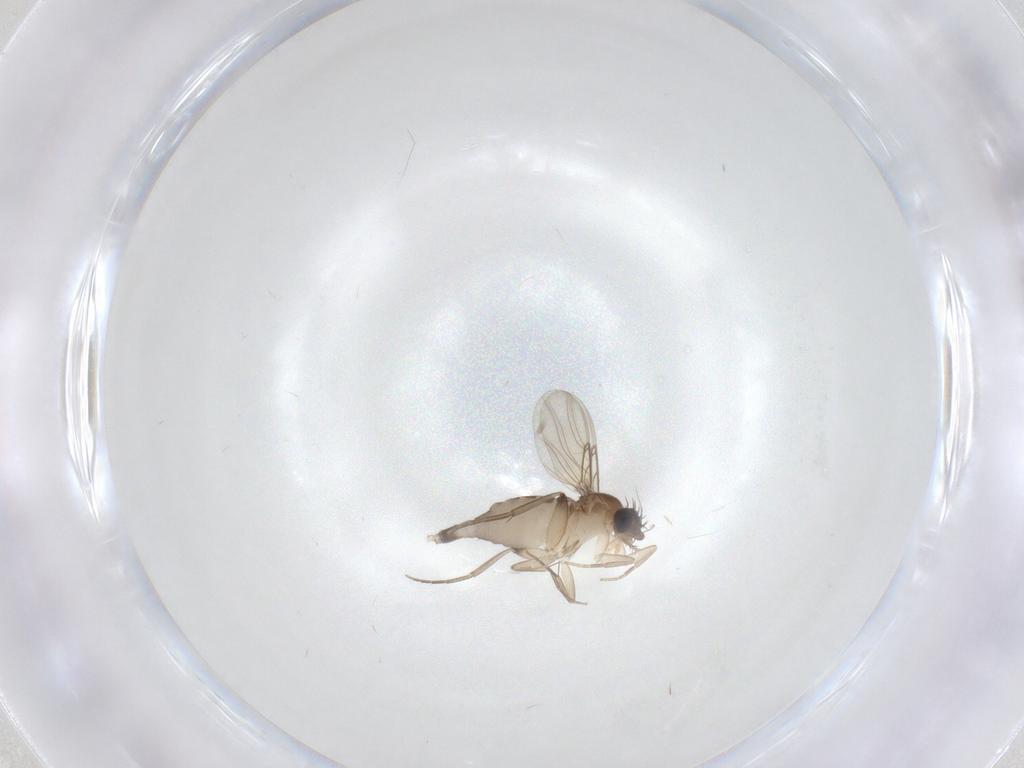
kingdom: Animalia
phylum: Arthropoda
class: Insecta
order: Diptera
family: Phoridae
